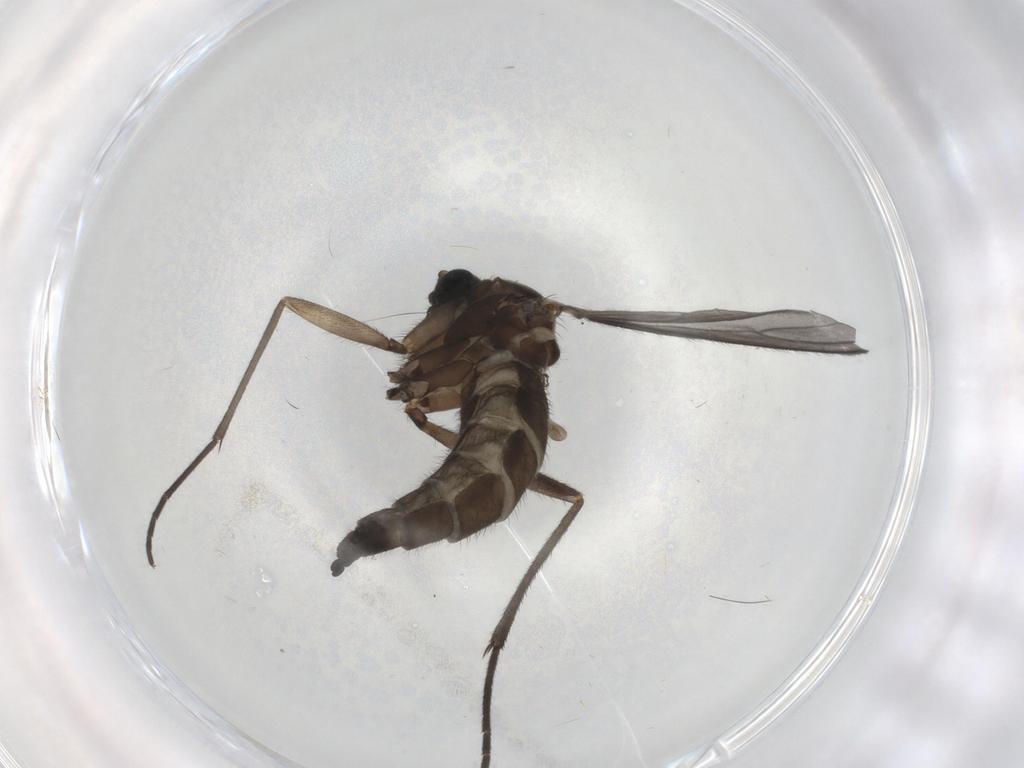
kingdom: Animalia
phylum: Arthropoda
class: Insecta
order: Diptera
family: Sciaridae
